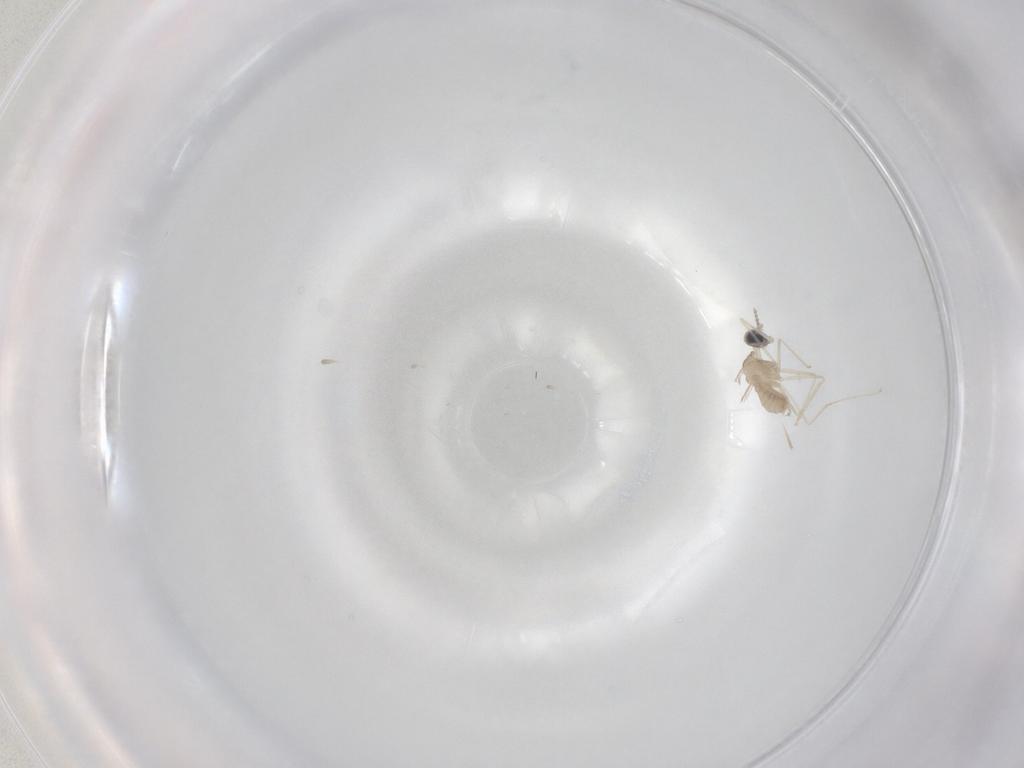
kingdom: Animalia
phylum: Arthropoda
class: Insecta
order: Diptera
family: Cecidomyiidae
